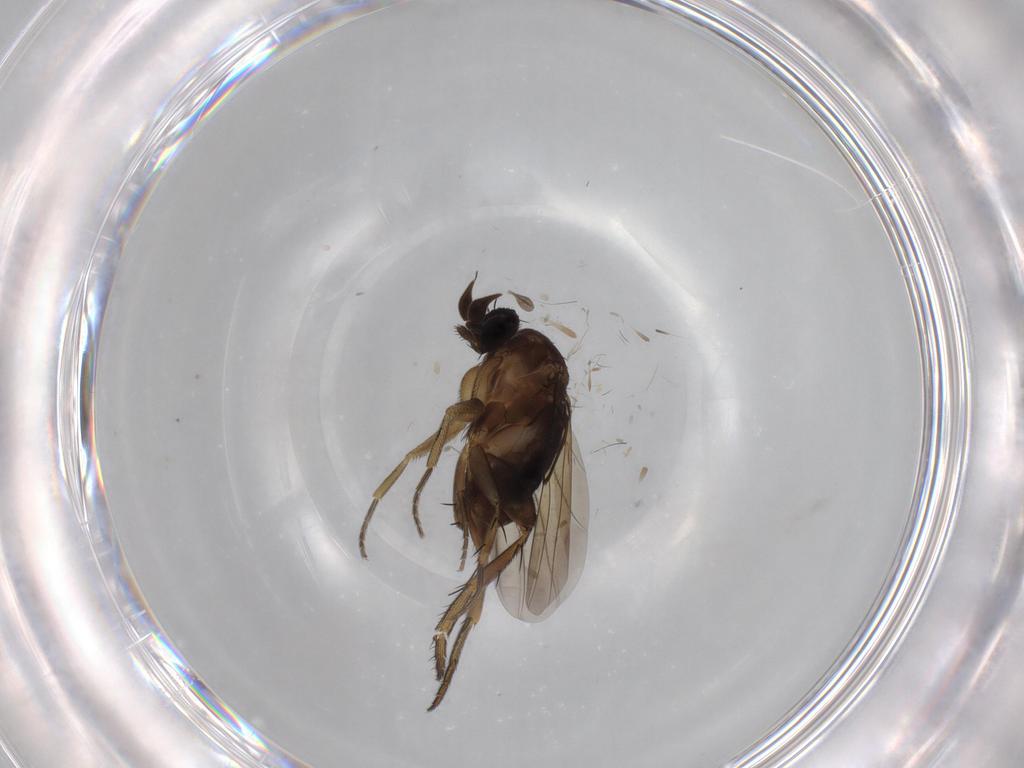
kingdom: Animalia
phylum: Arthropoda
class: Insecta
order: Diptera
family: Phoridae
